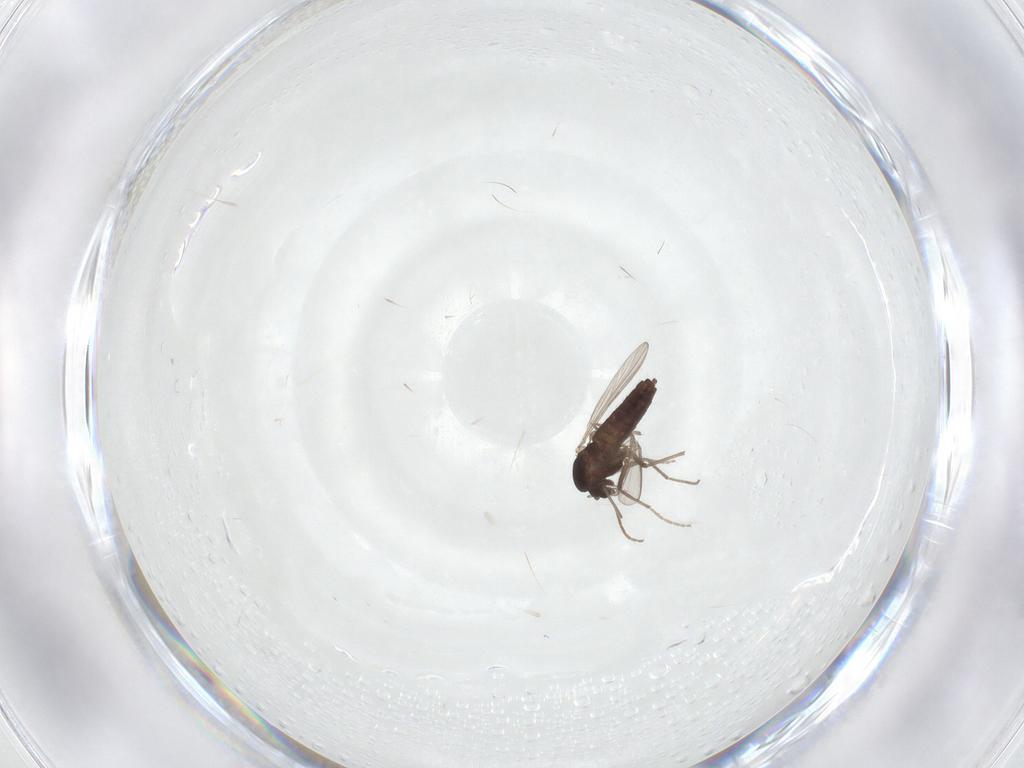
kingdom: Animalia
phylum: Arthropoda
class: Insecta
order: Diptera
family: Chironomidae
